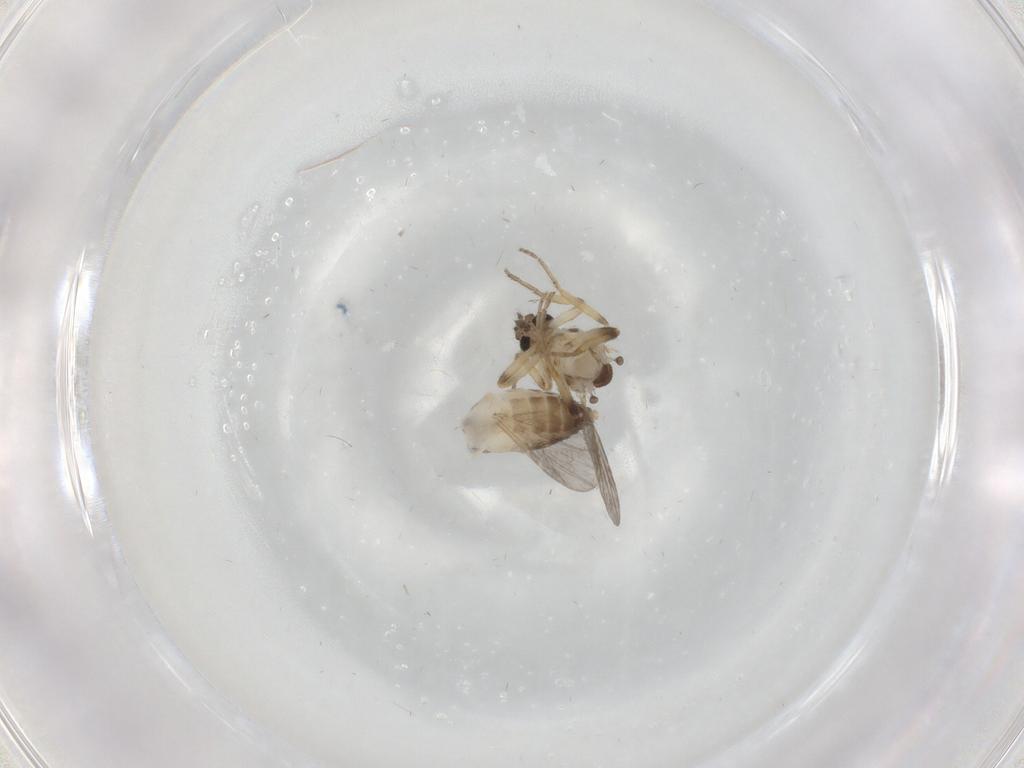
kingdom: Animalia
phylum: Arthropoda
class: Insecta
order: Diptera
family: Ceratopogonidae
